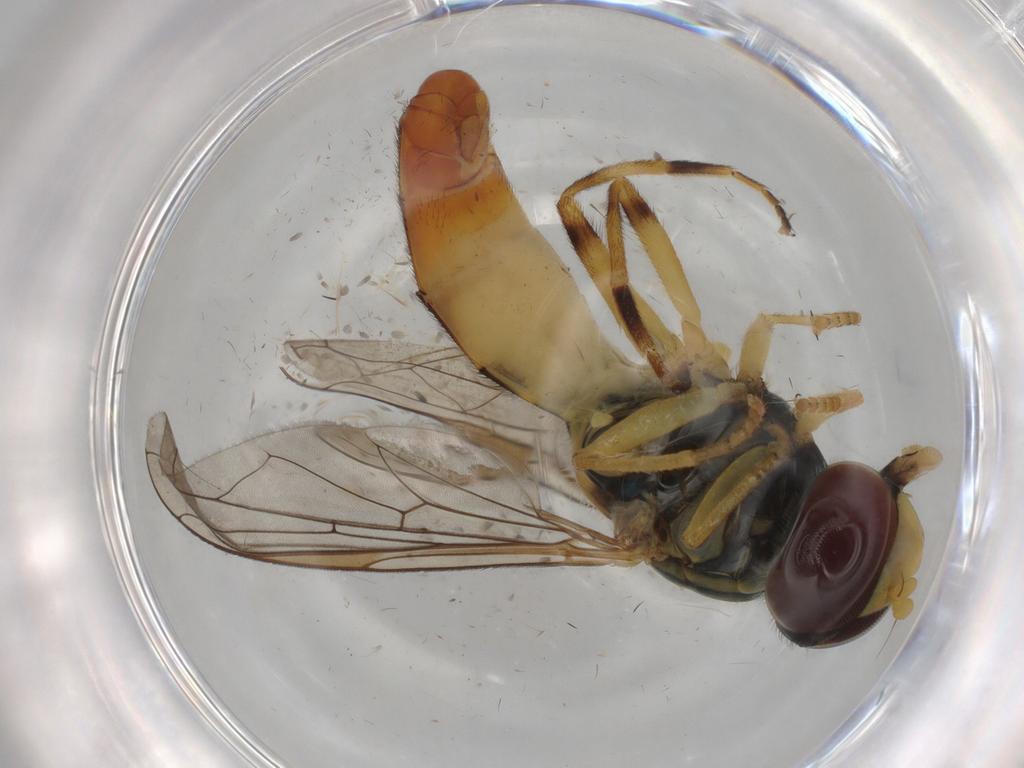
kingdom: Animalia
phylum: Arthropoda
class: Insecta
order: Diptera
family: Syrphidae
